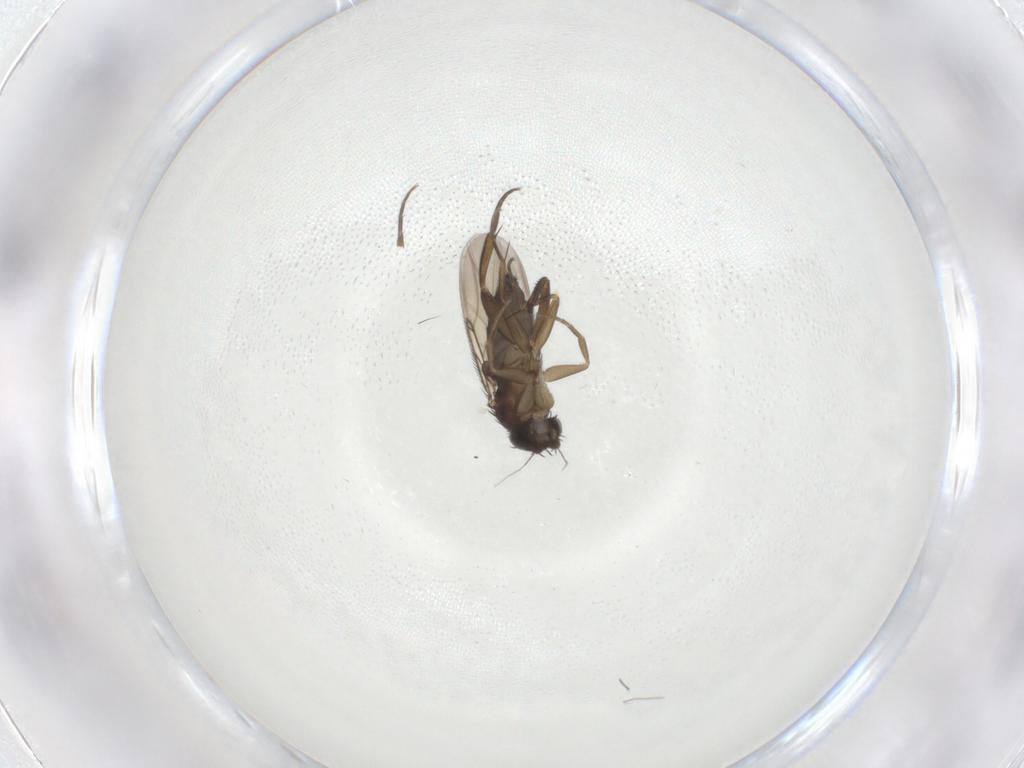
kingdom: Animalia
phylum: Arthropoda
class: Insecta
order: Diptera
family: Phoridae
